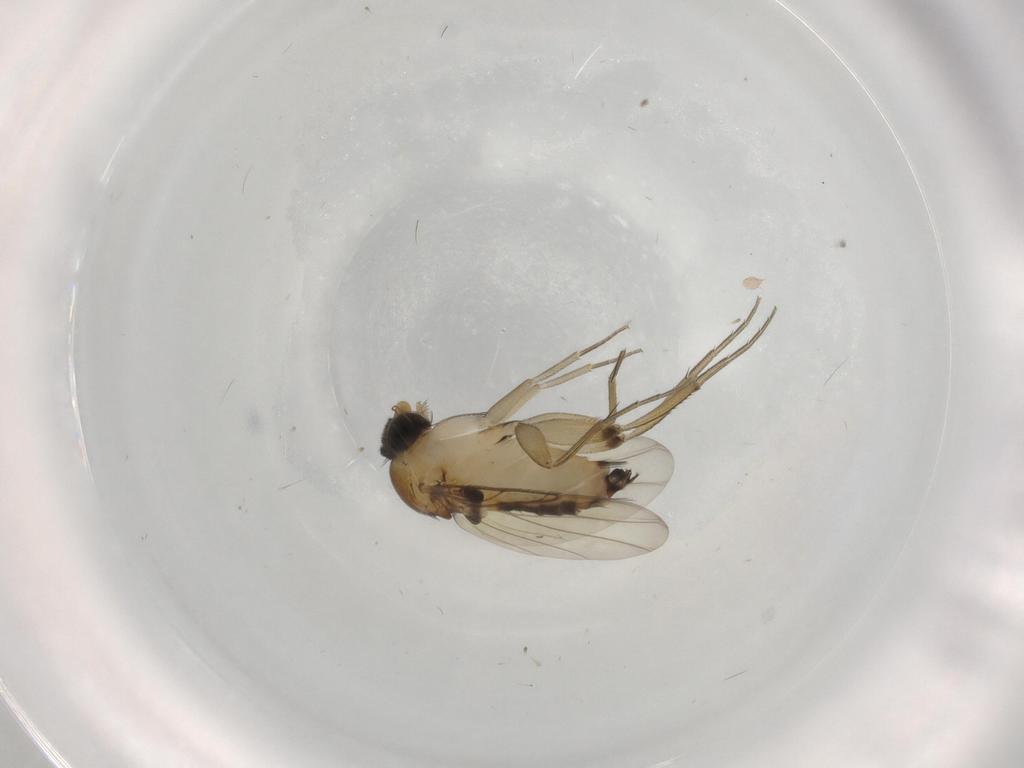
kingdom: Animalia
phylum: Arthropoda
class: Insecta
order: Diptera
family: Phoridae
